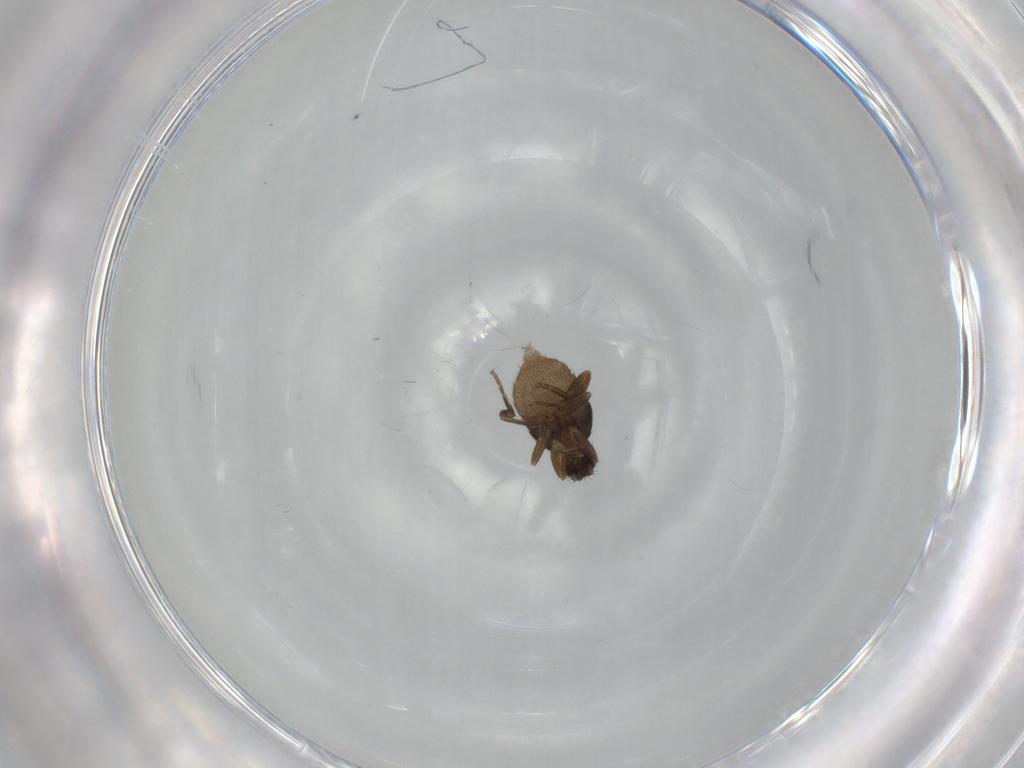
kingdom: Animalia
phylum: Arthropoda
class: Insecta
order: Diptera
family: Phoridae
